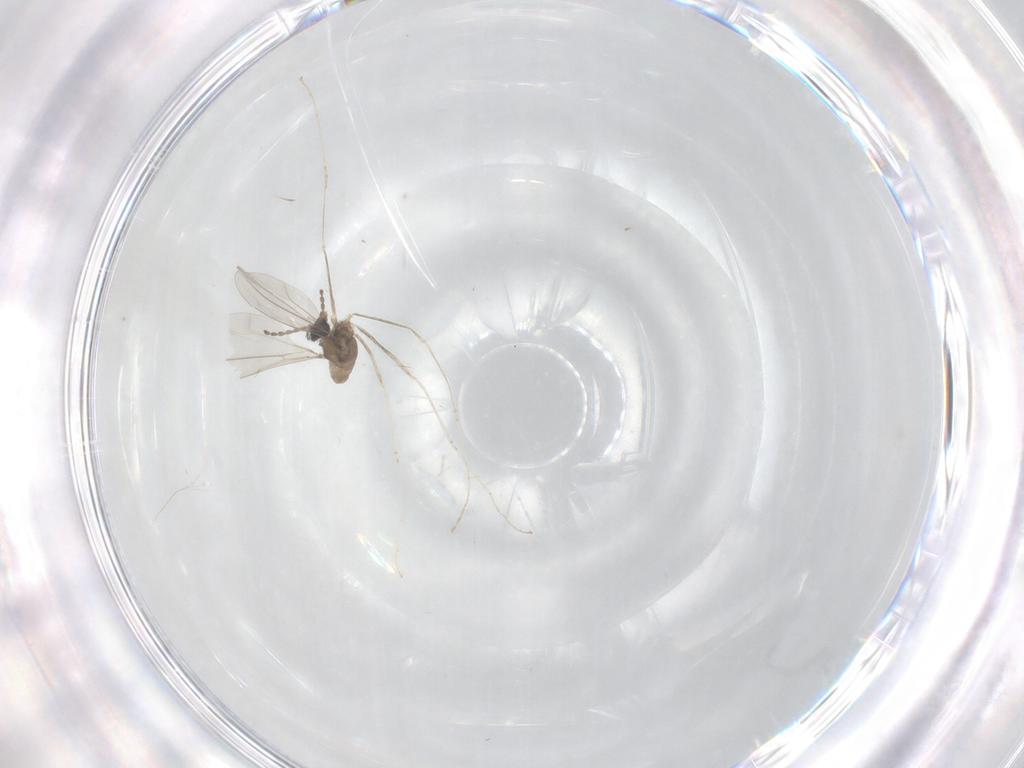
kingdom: Animalia
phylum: Arthropoda
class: Insecta
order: Diptera
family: Cecidomyiidae
